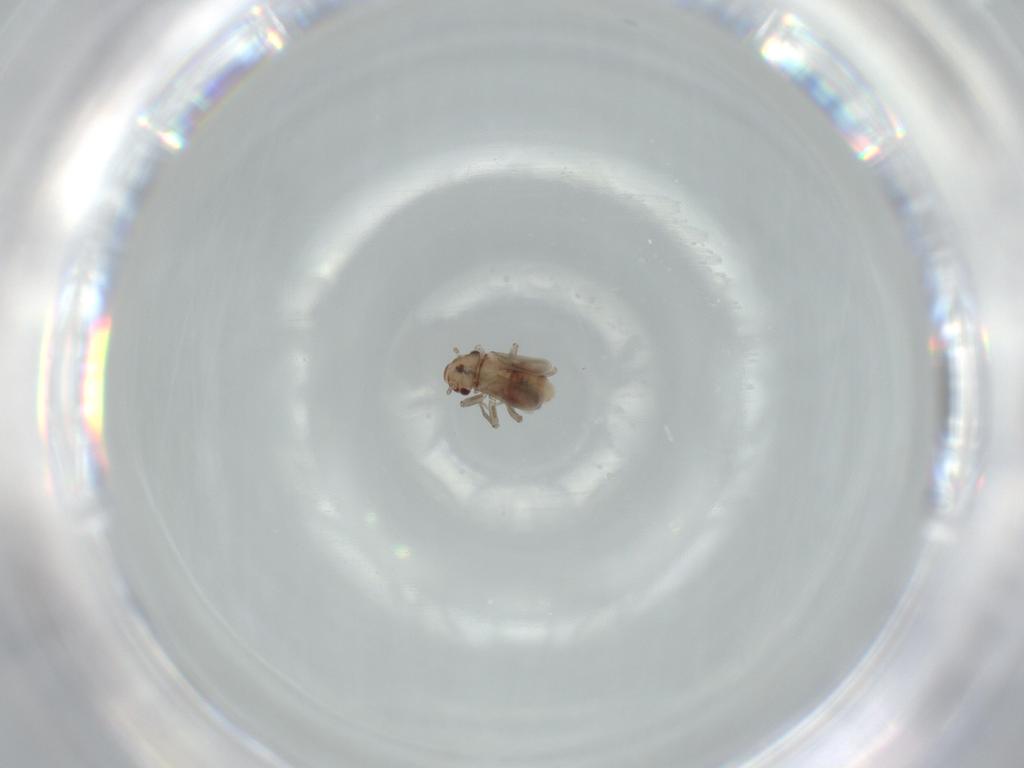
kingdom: Animalia
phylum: Arthropoda
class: Insecta
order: Psocodea
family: Lepidopsocidae
